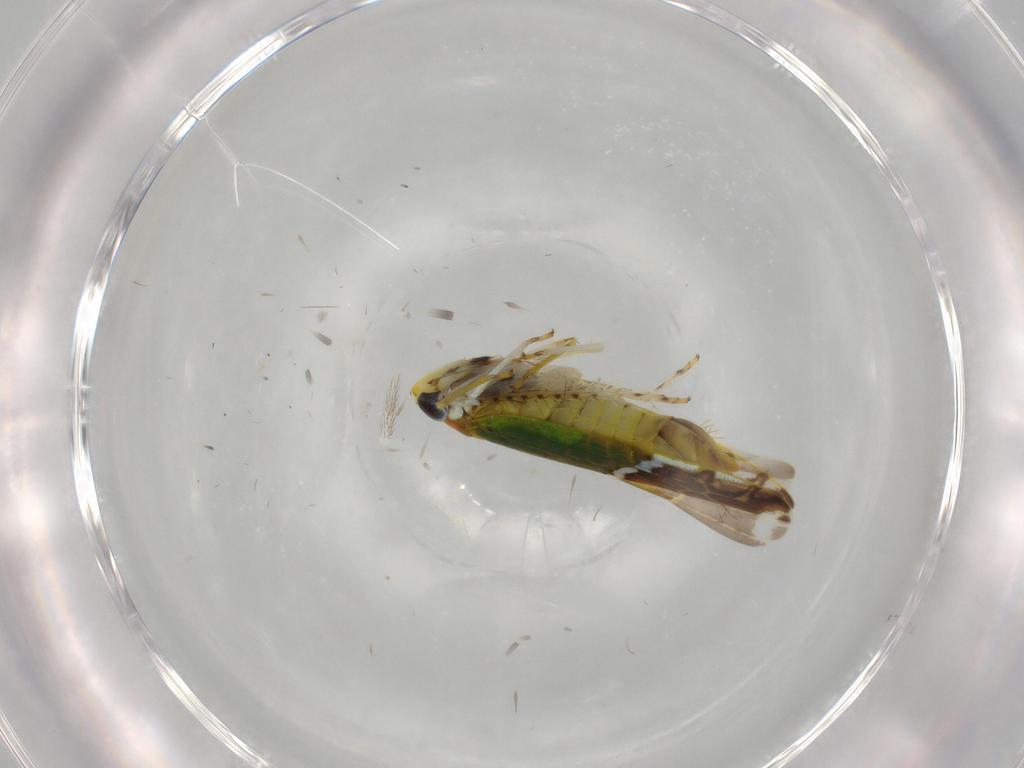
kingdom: Animalia
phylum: Arthropoda
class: Insecta
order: Hemiptera
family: Cicadellidae
